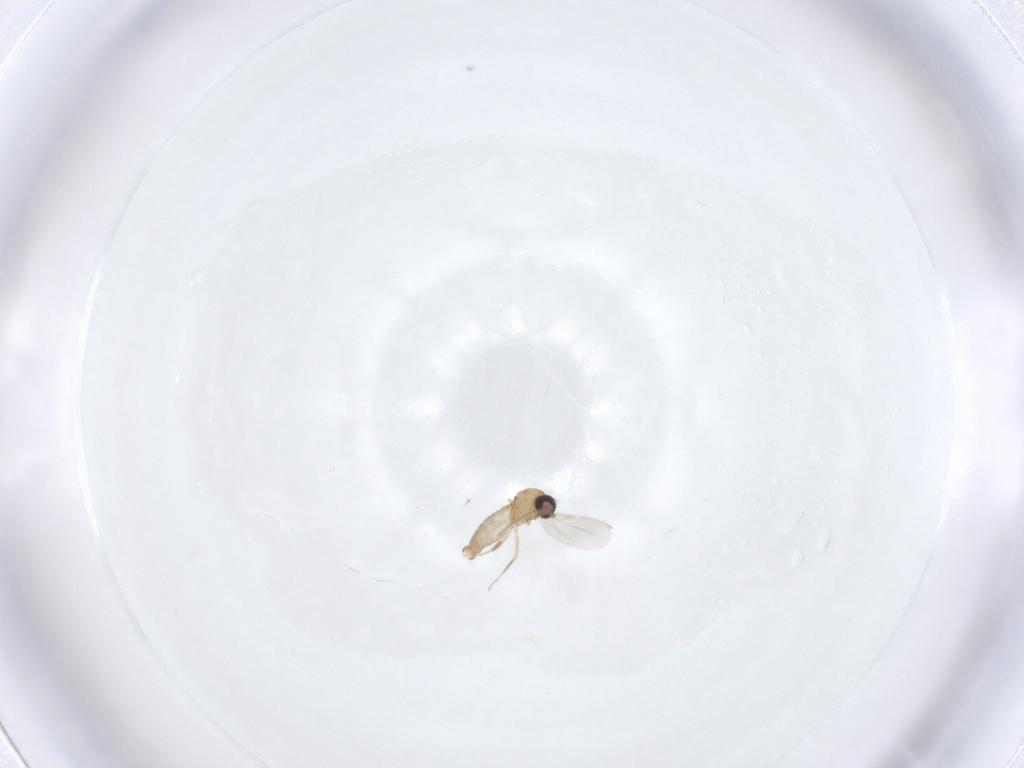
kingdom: Animalia
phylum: Arthropoda
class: Insecta
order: Diptera
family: Ceratopogonidae
